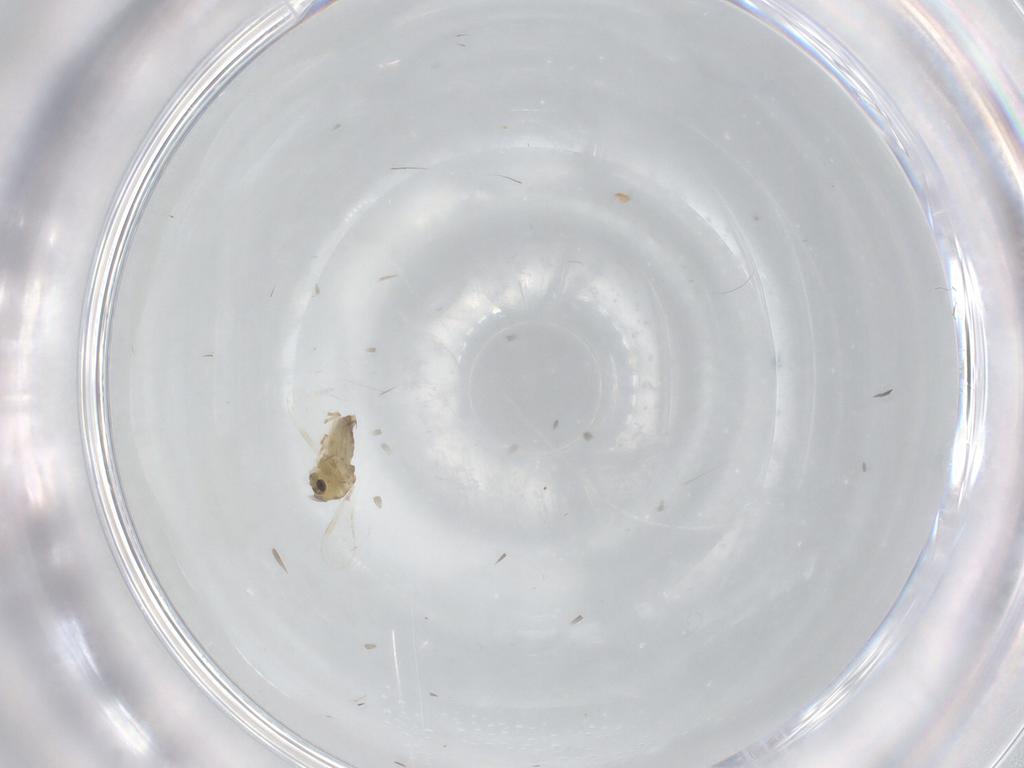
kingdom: Animalia
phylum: Arthropoda
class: Insecta
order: Diptera
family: Chironomidae
